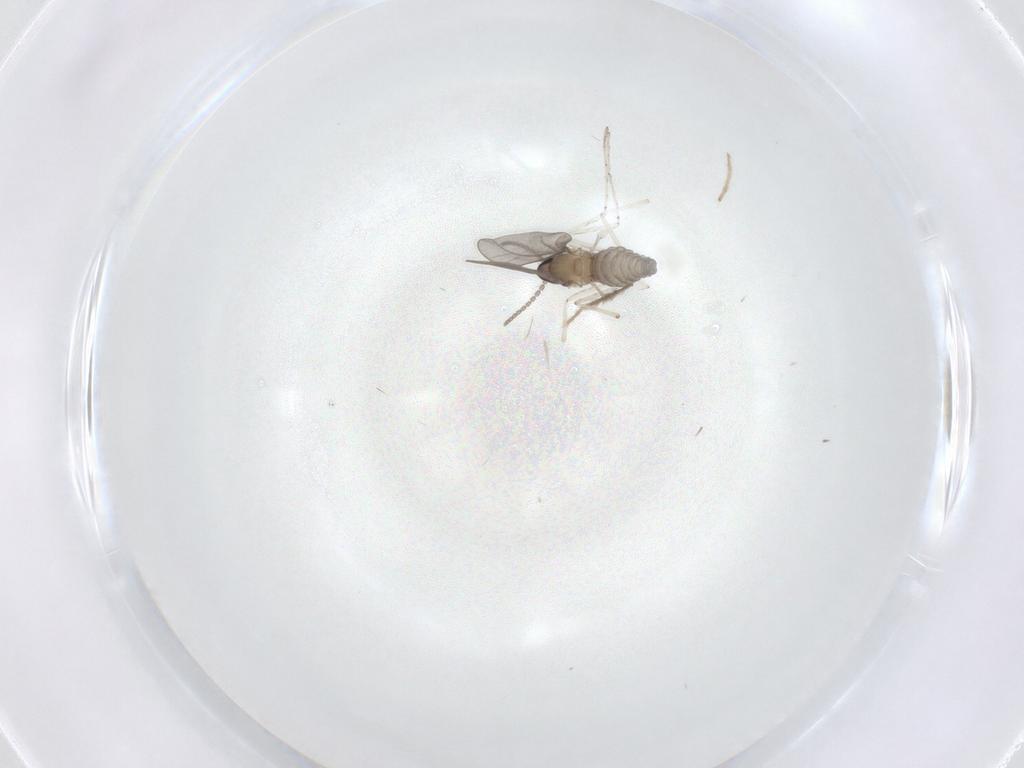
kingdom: Animalia
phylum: Arthropoda
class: Insecta
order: Diptera
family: Cecidomyiidae
